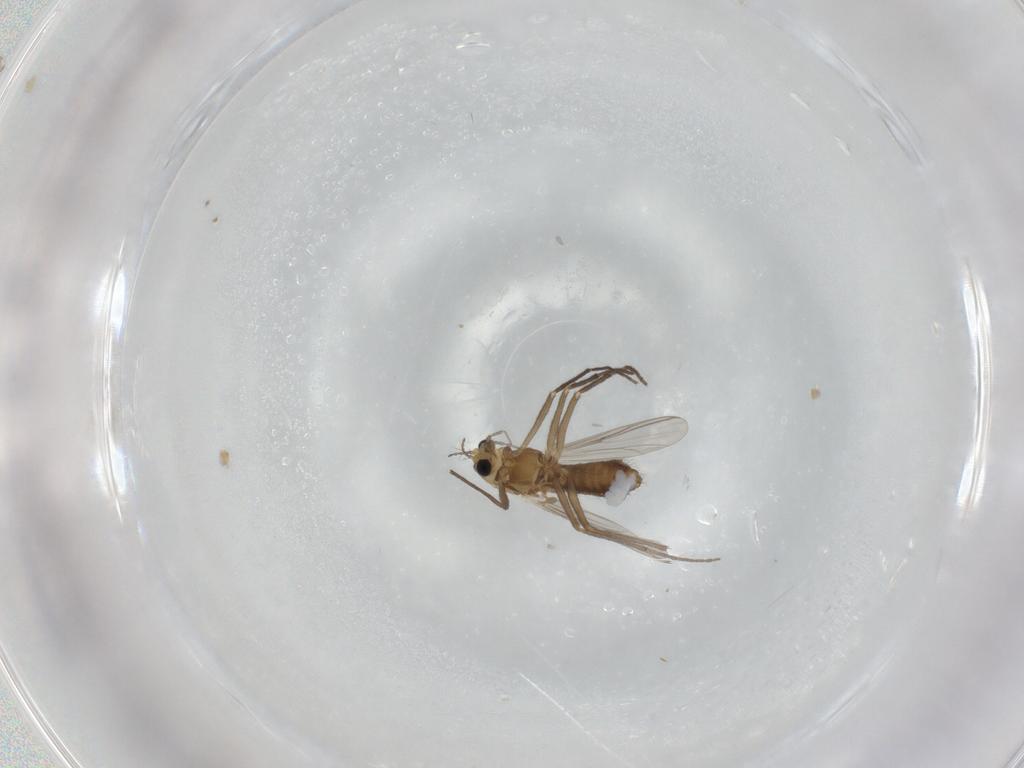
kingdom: Animalia
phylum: Arthropoda
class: Insecta
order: Diptera
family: Chironomidae
